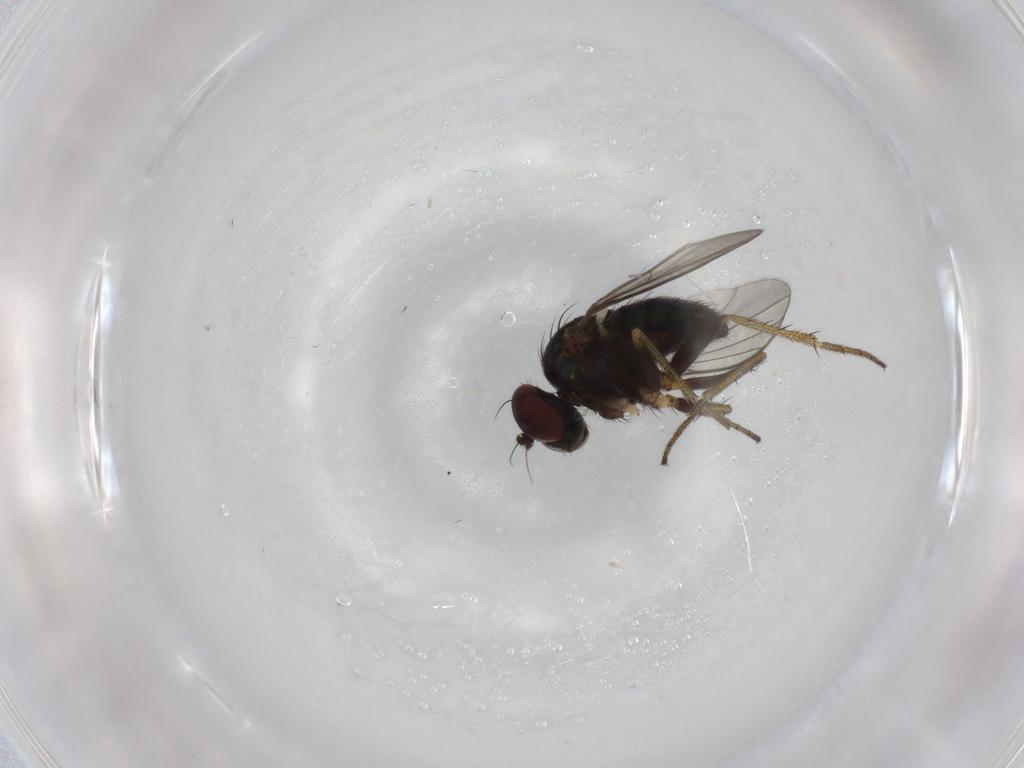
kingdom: Animalia
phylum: Arthropoda
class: Insecta
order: Diptera
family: Dolichopodidae
